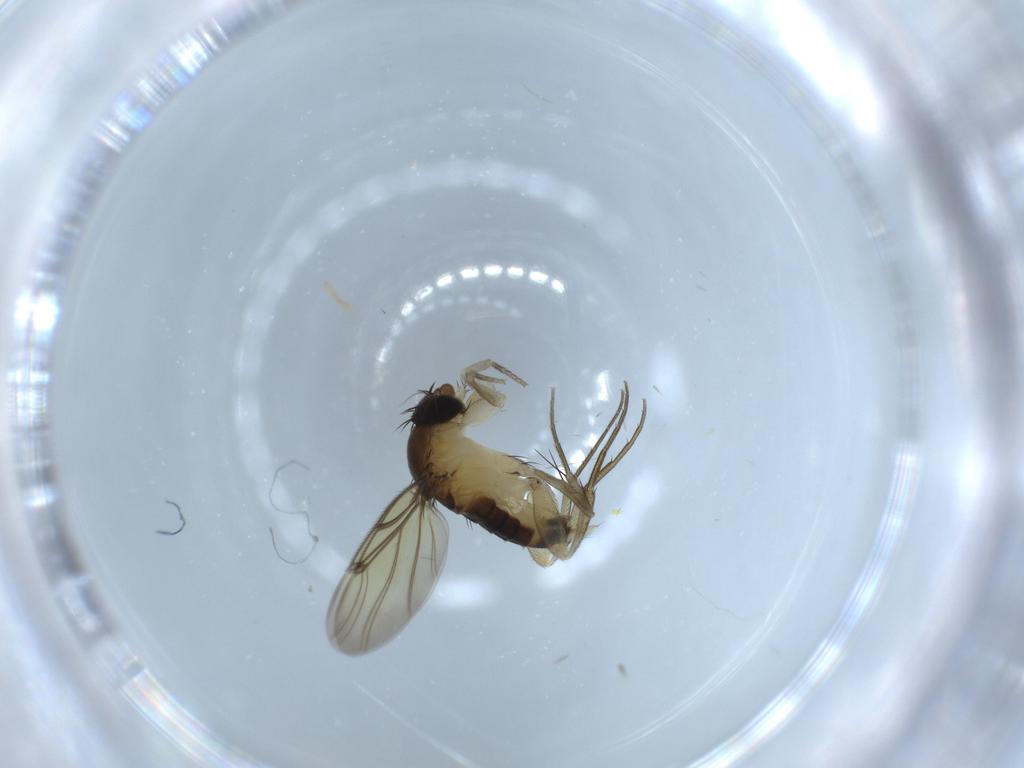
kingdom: Animalia
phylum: Arthropoda
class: Insecta
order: Diptera
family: Phoridae
